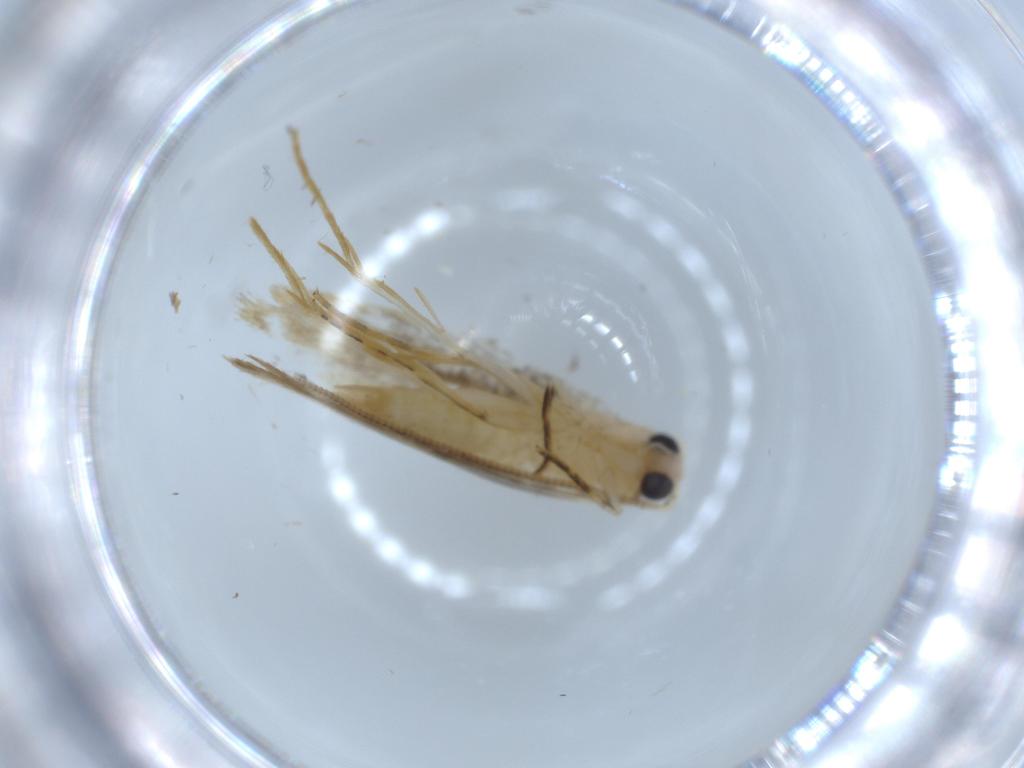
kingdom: Animalia
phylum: Arthropoda
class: Insecta
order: Lepidoptera
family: Tineidae
